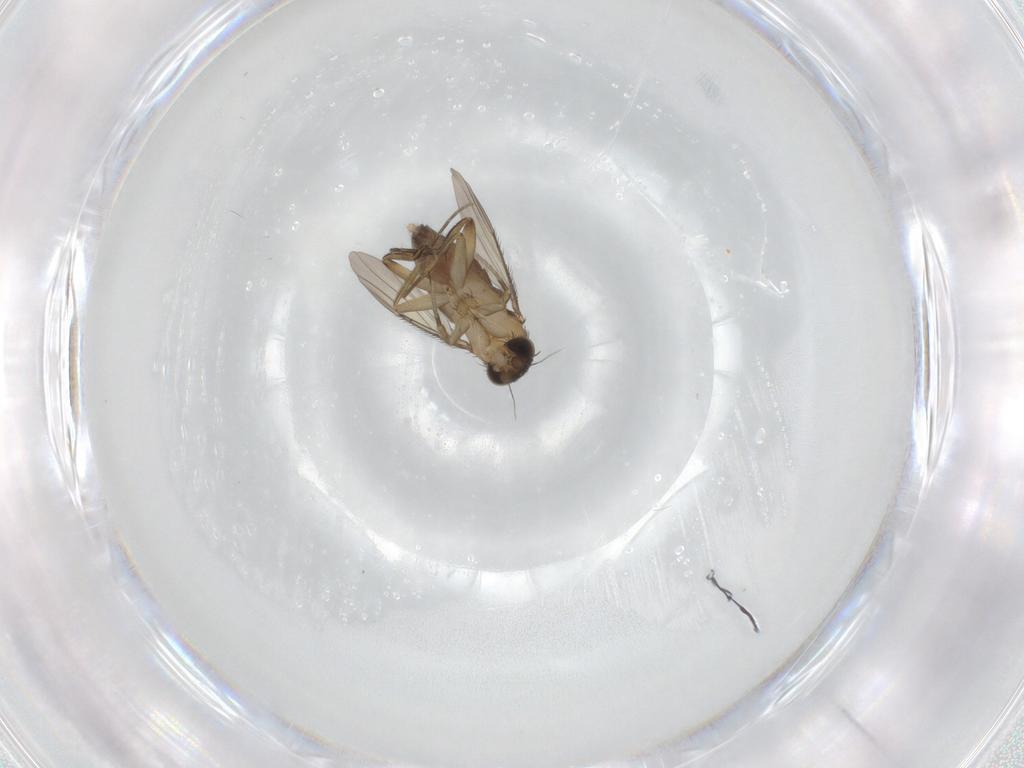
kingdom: Animalia
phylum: Arthropoda
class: Insecta
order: Diptera
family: Phoridae
